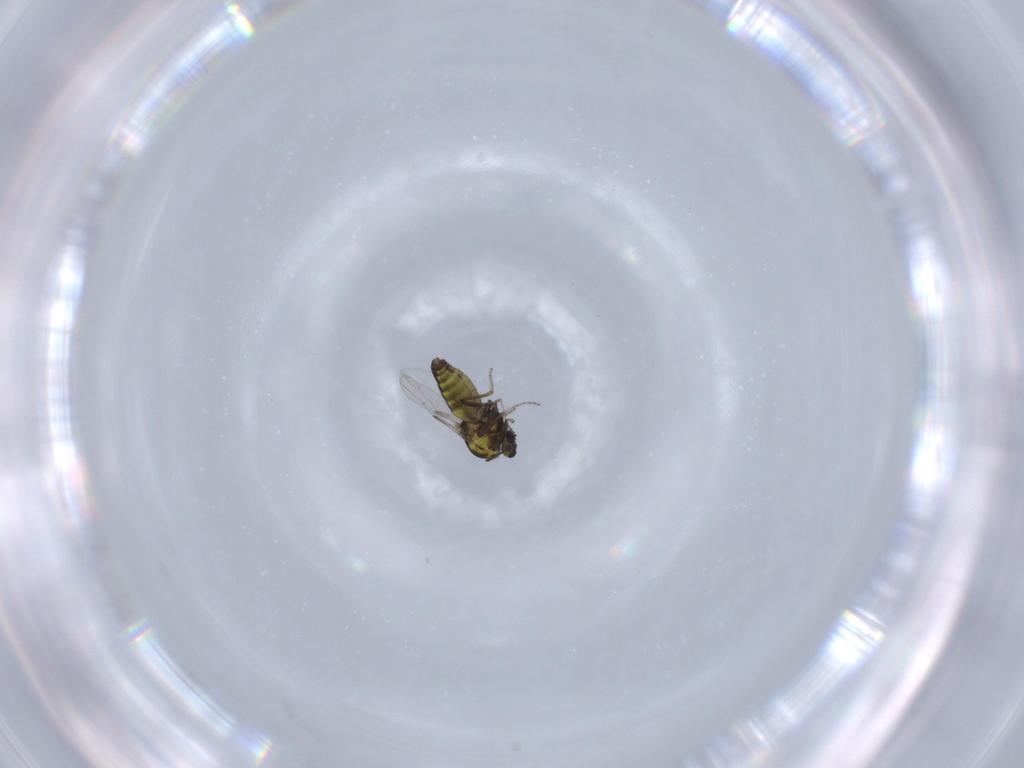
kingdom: Animalia
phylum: Arthropoda
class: Insecta
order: Diptera
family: Ceratopogonidae
